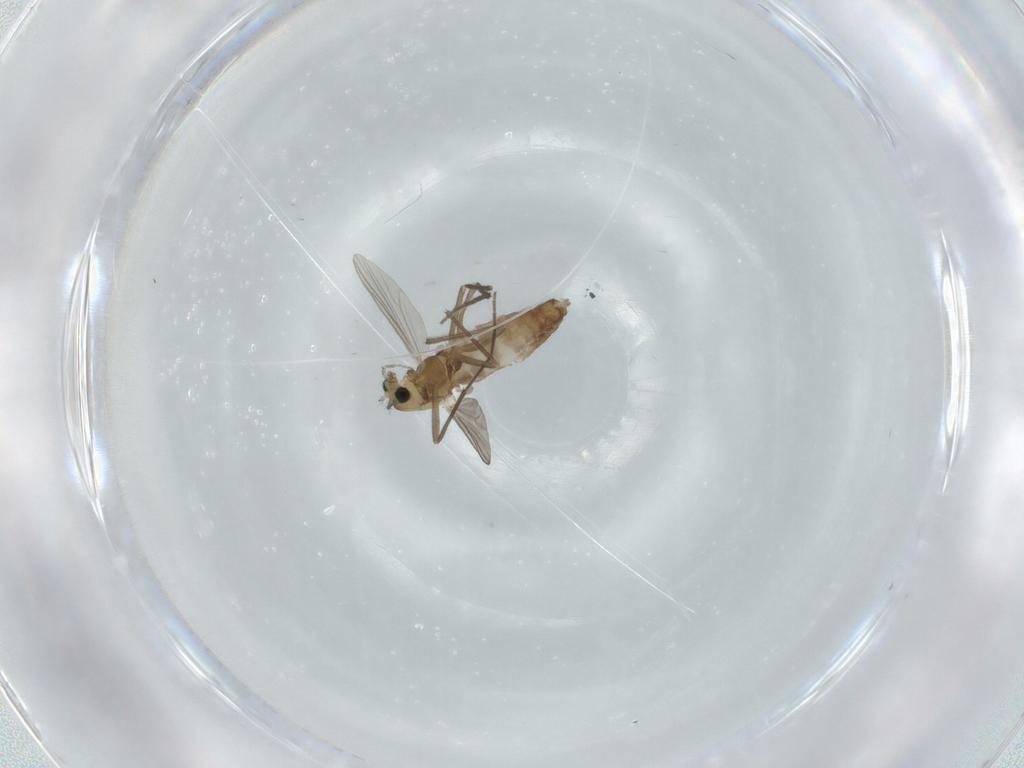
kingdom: Animalia
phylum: Arthropoda
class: Insecta
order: Diptera
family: Chironomidae
